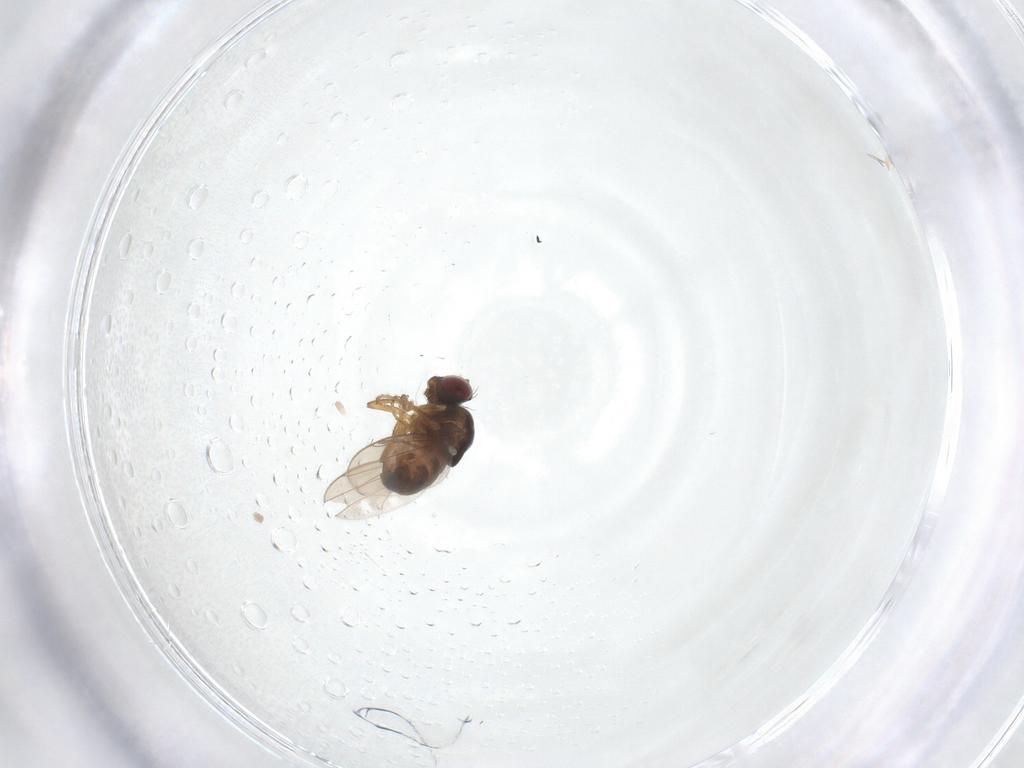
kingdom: Animalia
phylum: Arthropoda
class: Insecta
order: Diptera
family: Ephydridae
